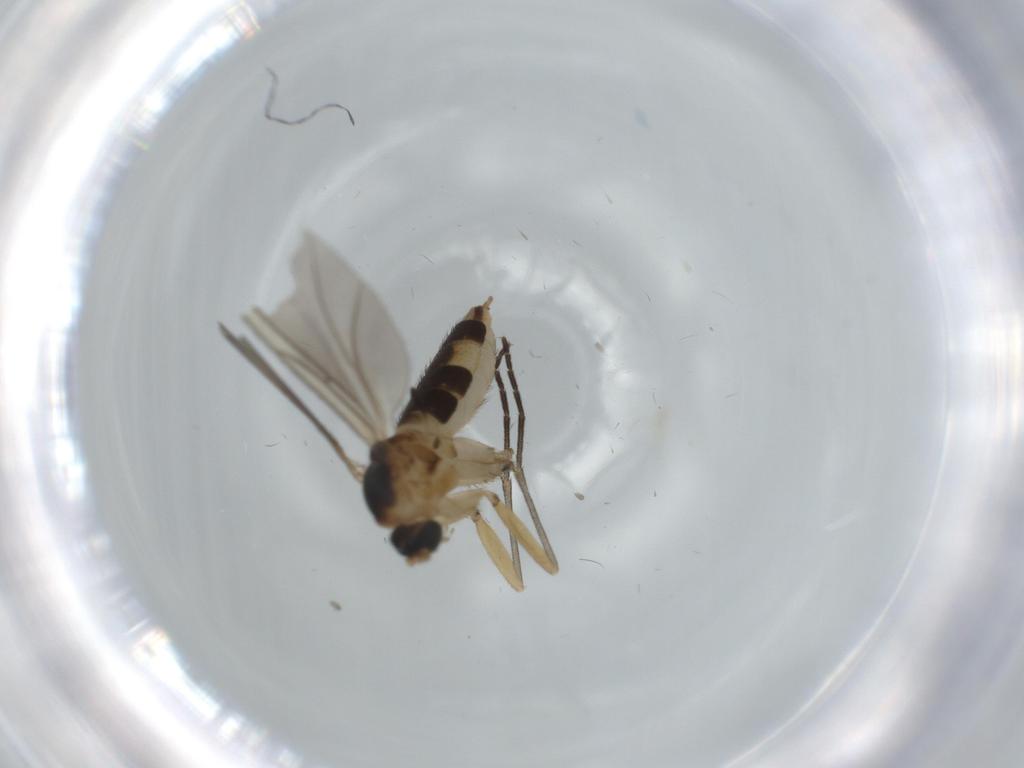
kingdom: Animalia
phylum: Arthropoda
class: Insecta
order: Diptera
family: Sciaridae
